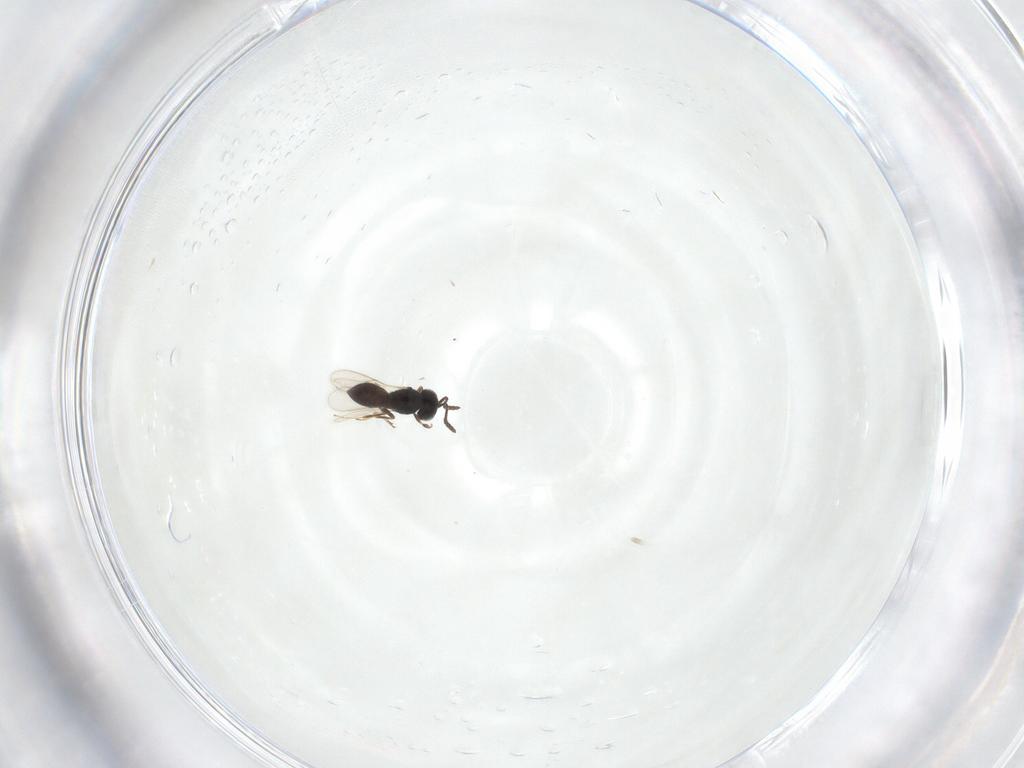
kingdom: Animalia
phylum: Arthropoda
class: Insecta
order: Hymenoptera
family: Scelionidae
